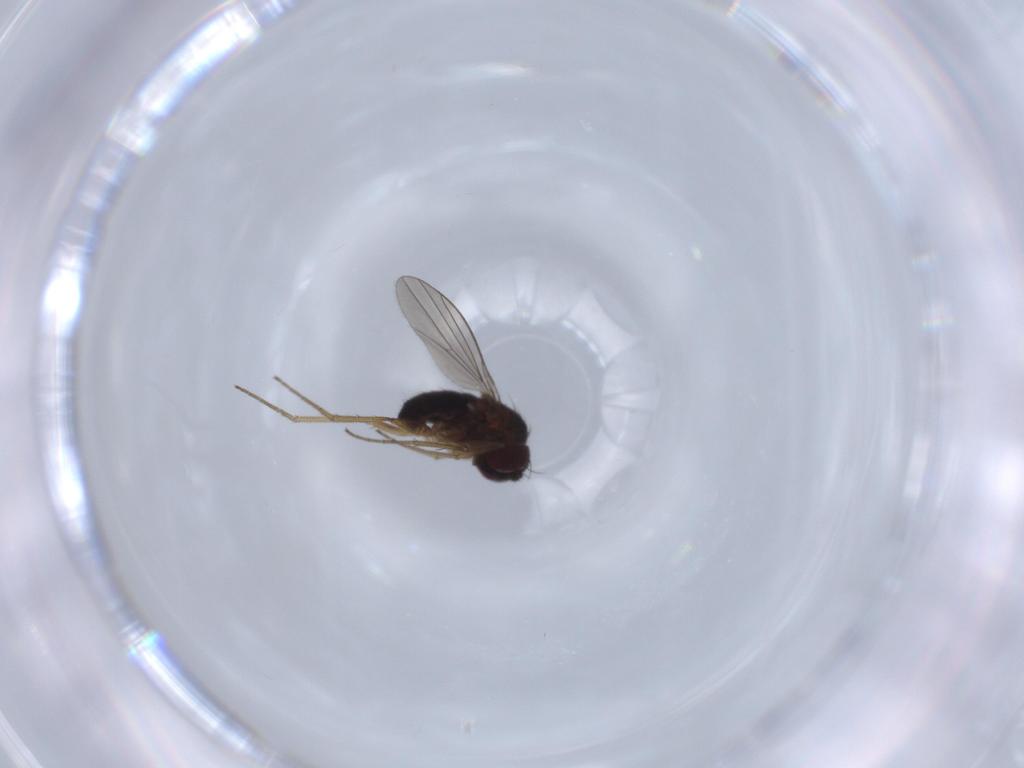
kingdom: Animalia
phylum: Arthropoda
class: Insecta
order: Diptera
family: Dolichopodidae
